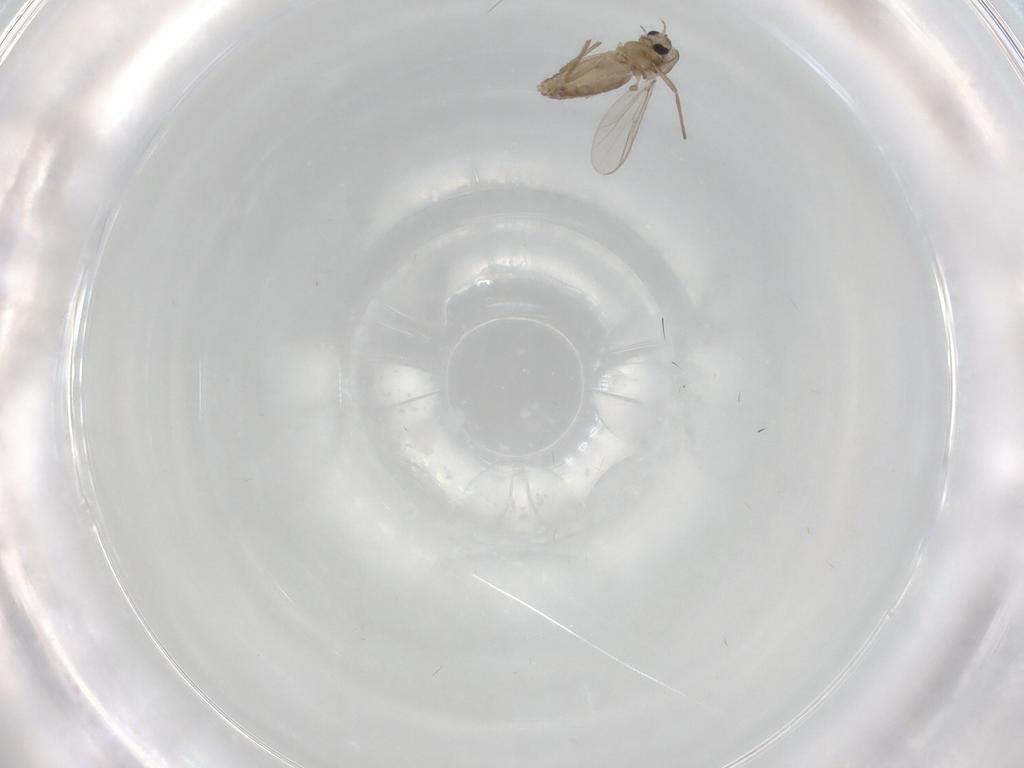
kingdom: Animalia
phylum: Arthropoda
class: Insecta
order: Diptera
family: Chironomidae
